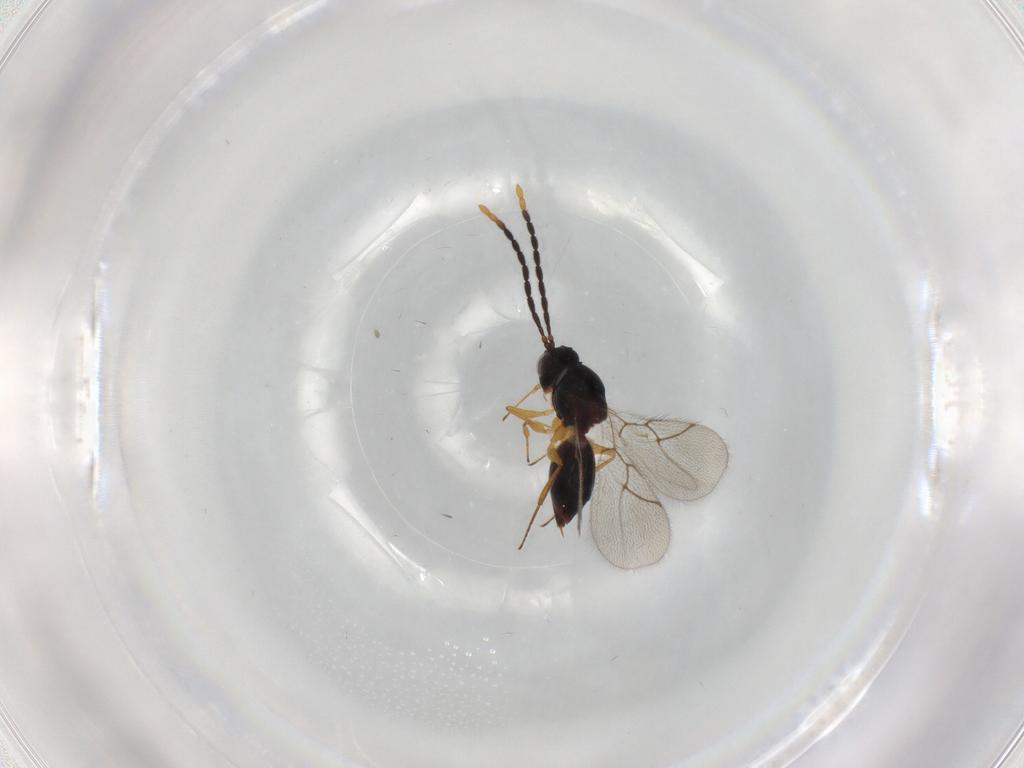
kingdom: Animalia
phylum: Arthropoda
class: Insecta
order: Hymenoptera
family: Figitidae
